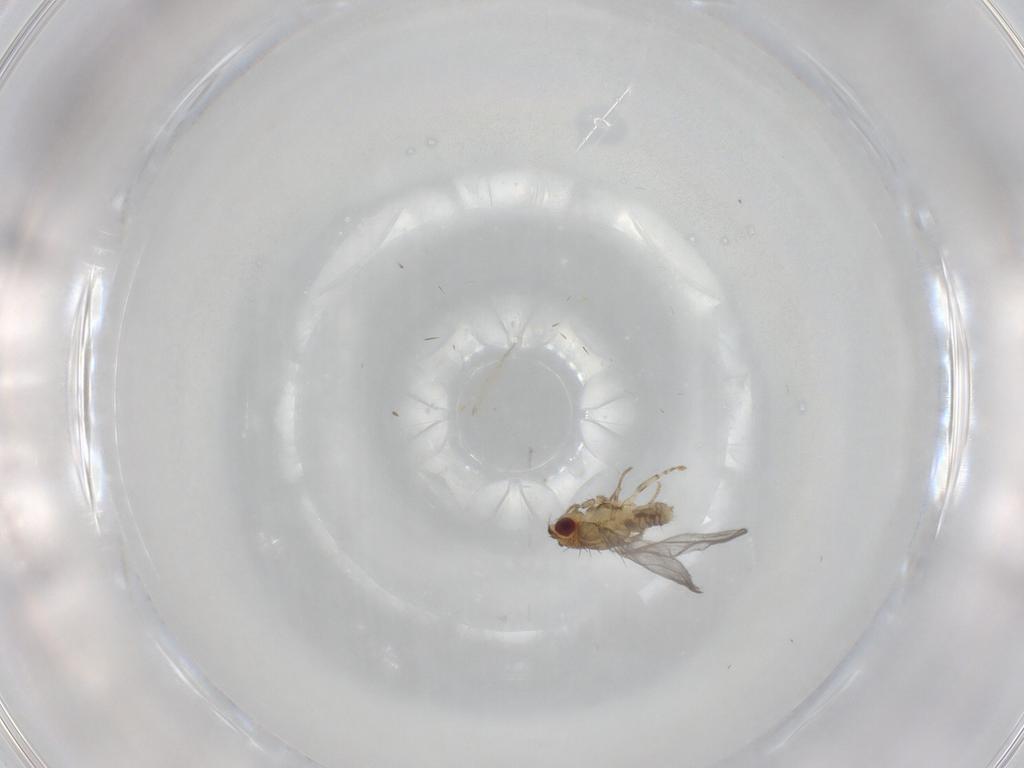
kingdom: Animalia
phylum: Arthropoda
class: Insecta
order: Diptera
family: Asteiidae
